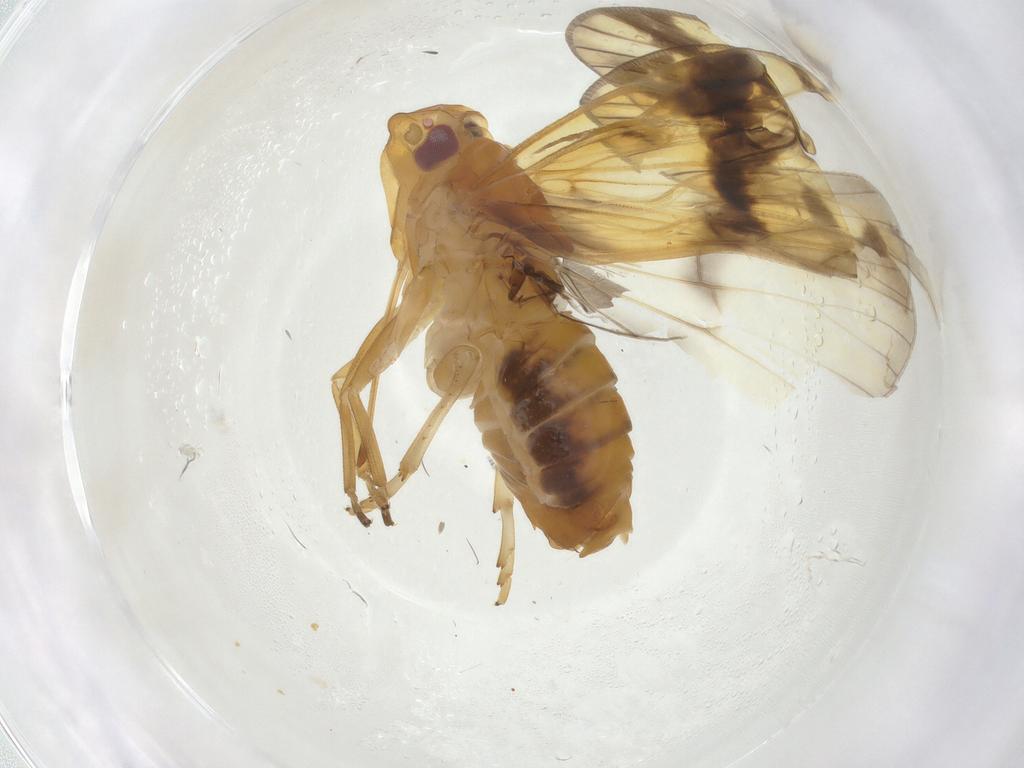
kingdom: Animalia
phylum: Arthropoda
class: Insecta
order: Hemiptera
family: Cixiidae
